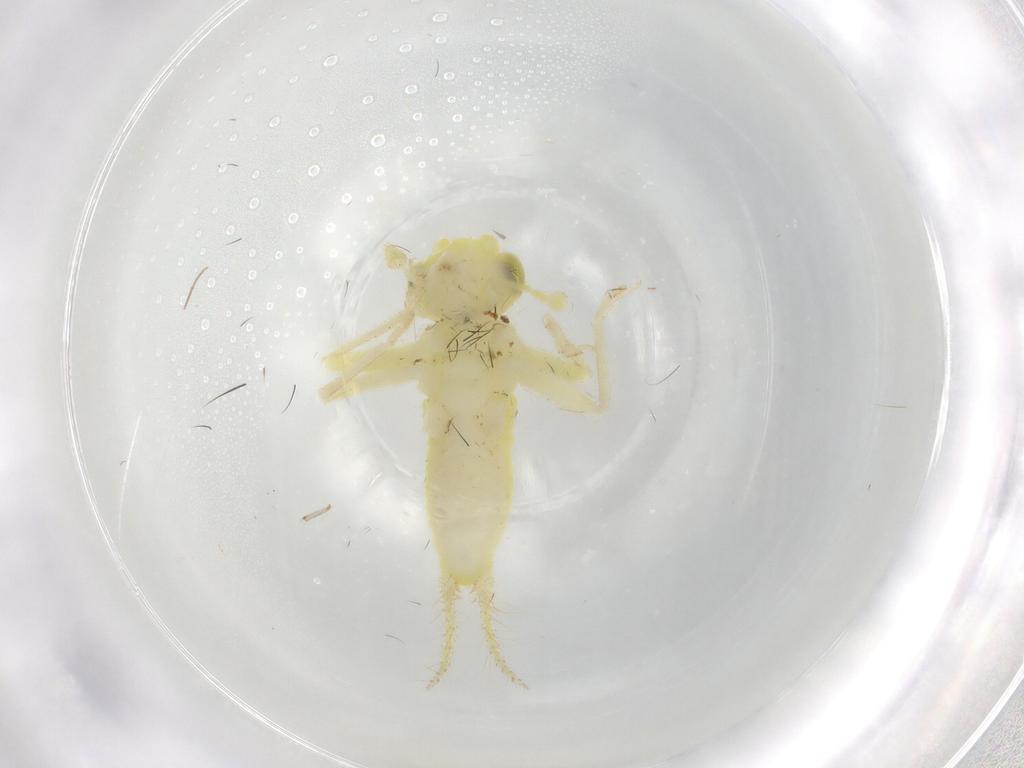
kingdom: Animalia
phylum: Arthropoda
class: Insecta
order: Orthoptera
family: Trigonidiidae
